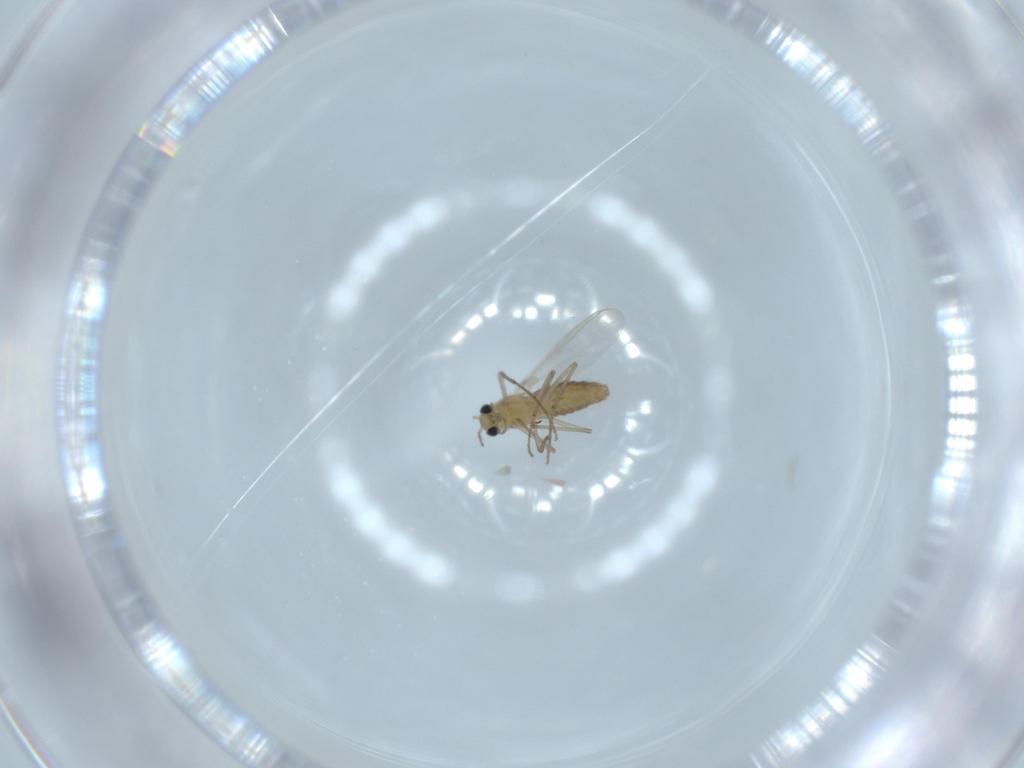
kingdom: Animalia
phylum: Arthropoda
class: Insecta
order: Diptera
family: Chironomidae
